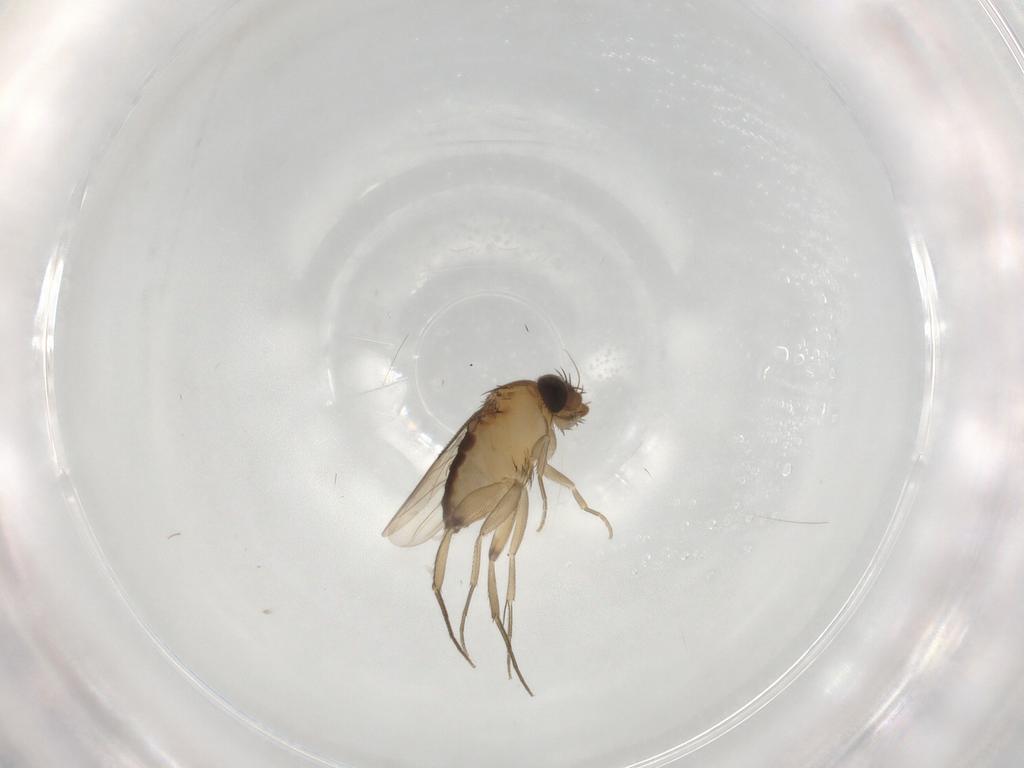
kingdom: Animalia
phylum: Arthropoda
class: Insecta
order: Diptera
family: Phoridae
